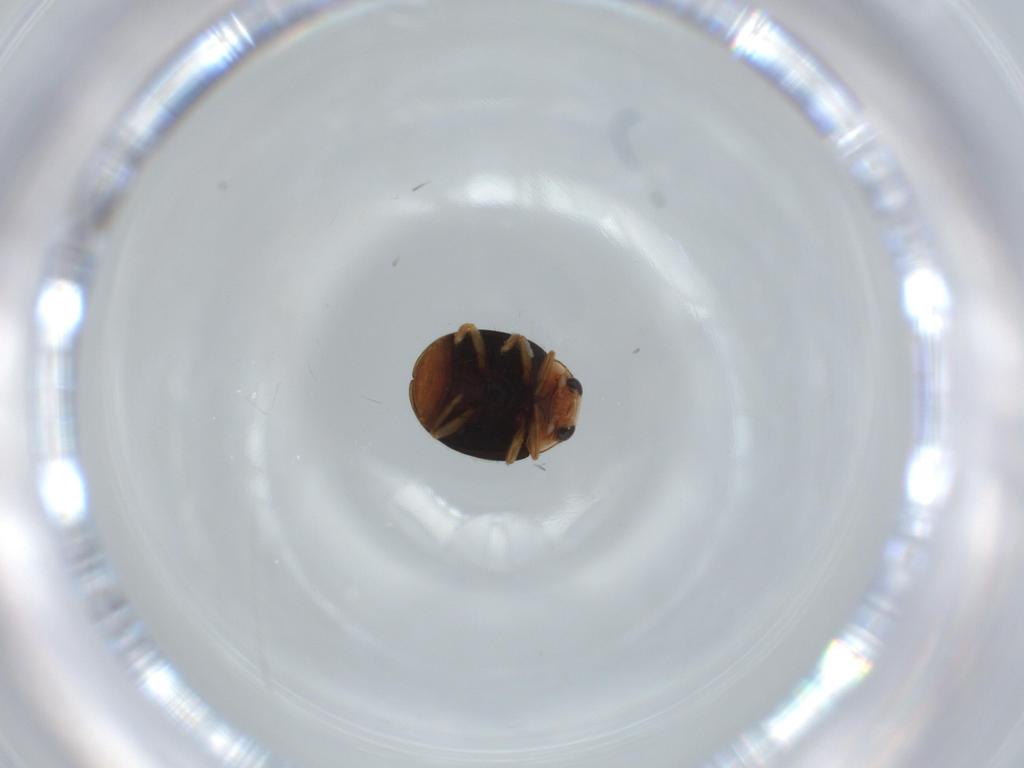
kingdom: Animalia
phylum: Arthropoda
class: Insecta
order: Coleoptera
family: Coccinellidae
